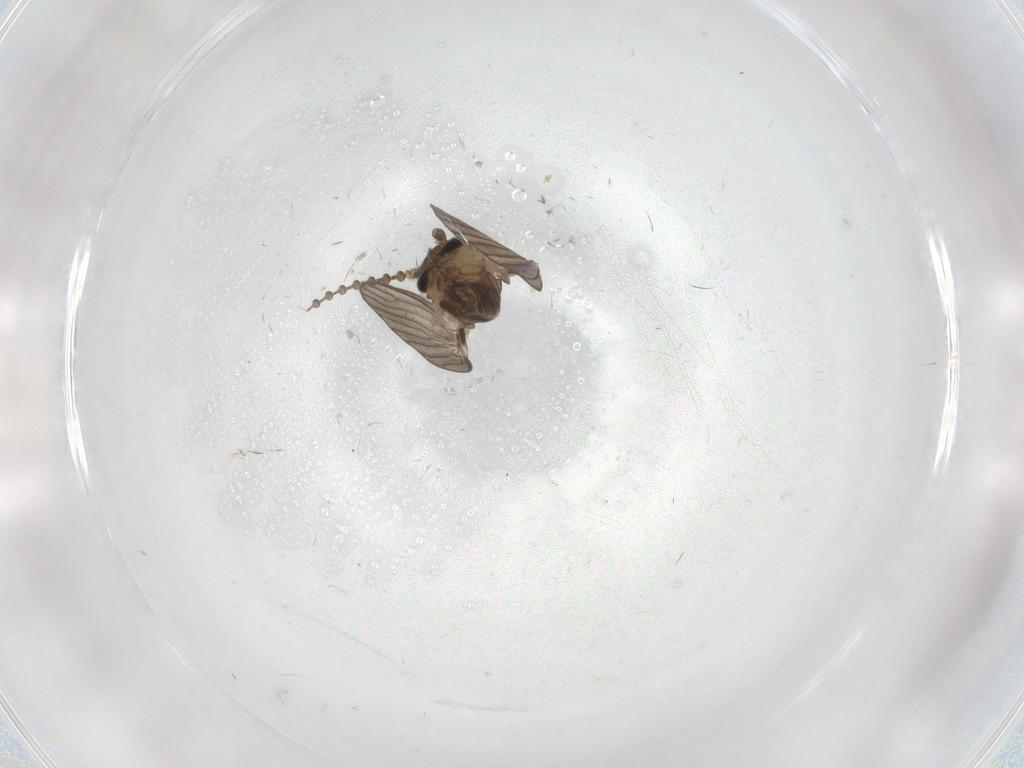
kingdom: Animalia
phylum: Arthropoda
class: Insecta
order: Diptera
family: Psychodidae
